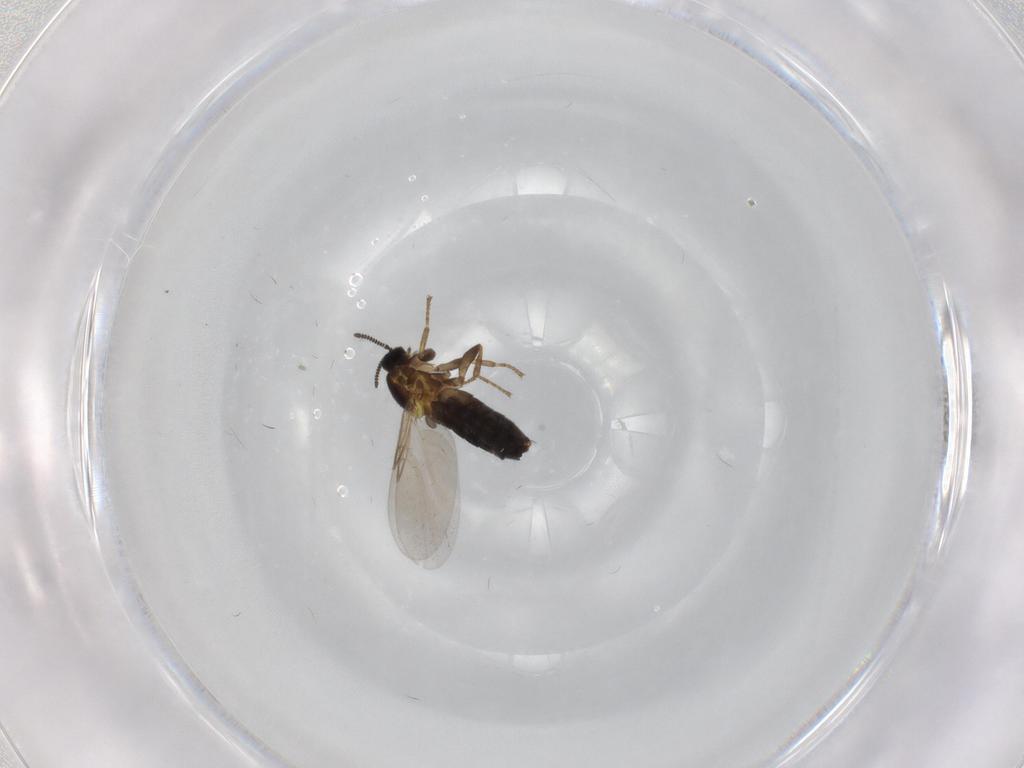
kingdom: Animalia
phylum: Arthropoda
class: Insecta
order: Diptera
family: Scatopsidae
